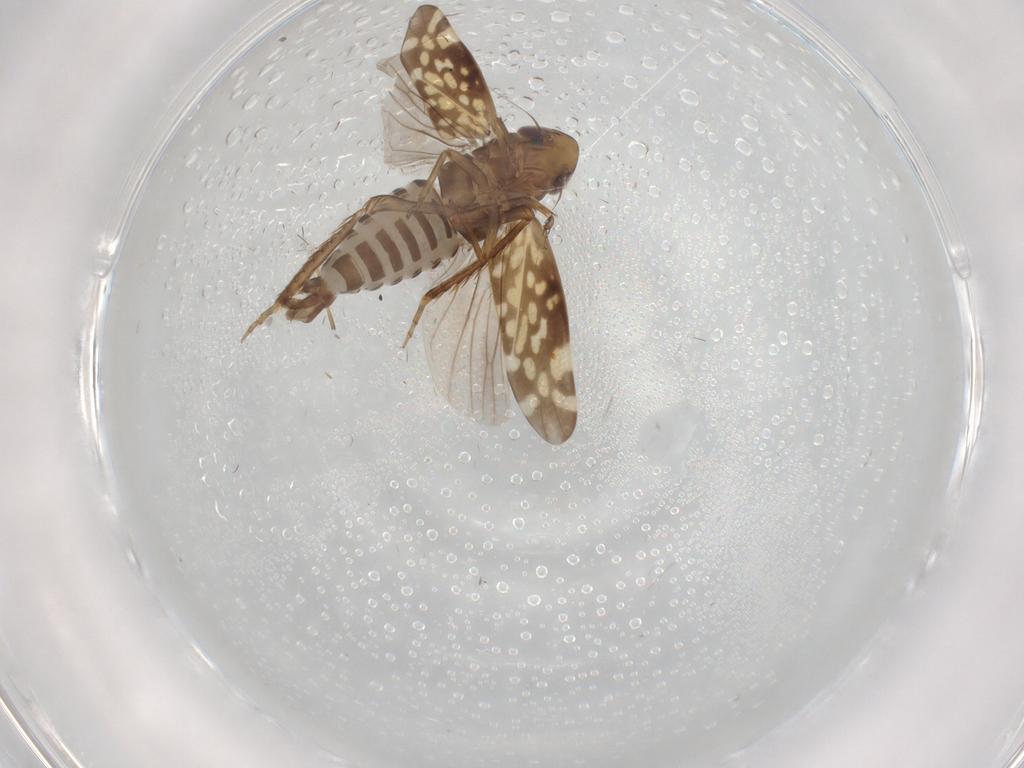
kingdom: Animalia
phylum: Arthropoda
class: Insecta
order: Hemiptera
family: Cicadellidae
